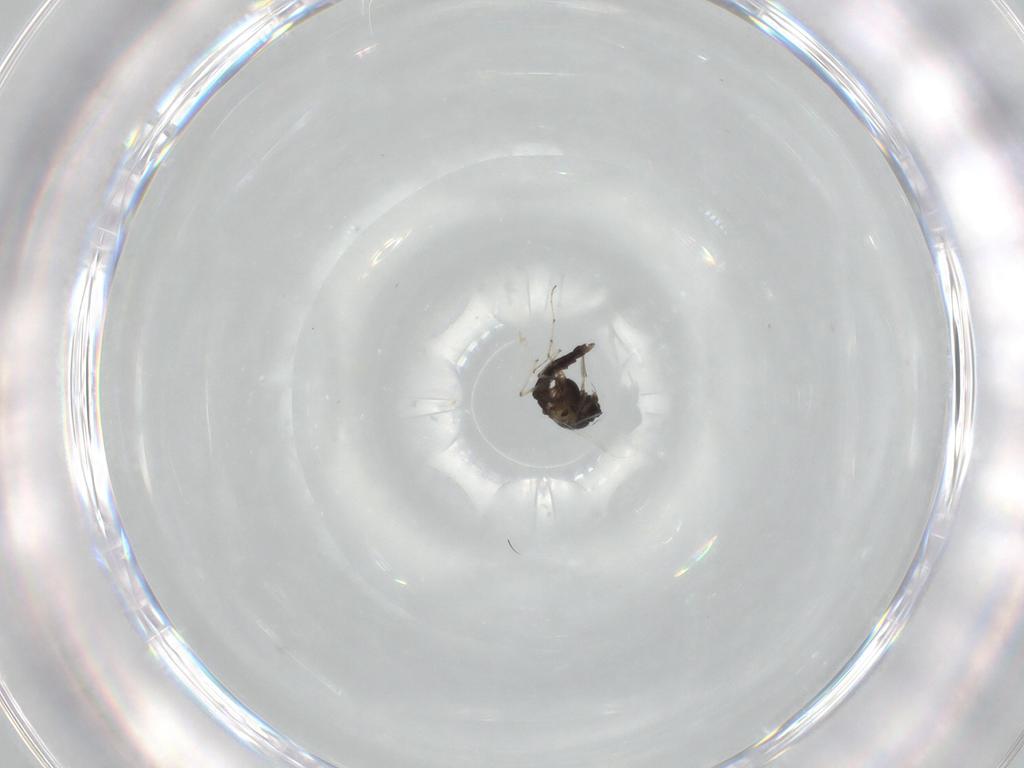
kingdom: Animalia
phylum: Arthropoda
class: Insecta
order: Diptera
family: Chironomidae
